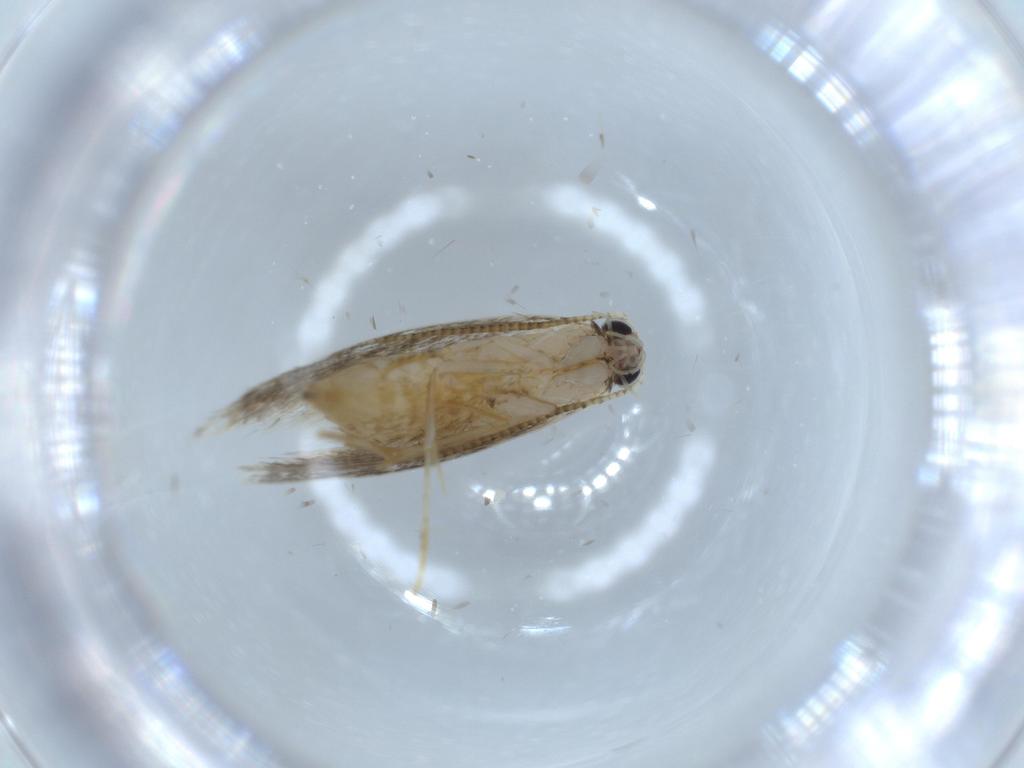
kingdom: Animalia
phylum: Arthropoda
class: Insecta
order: Lepidoptera
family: Tineidae
